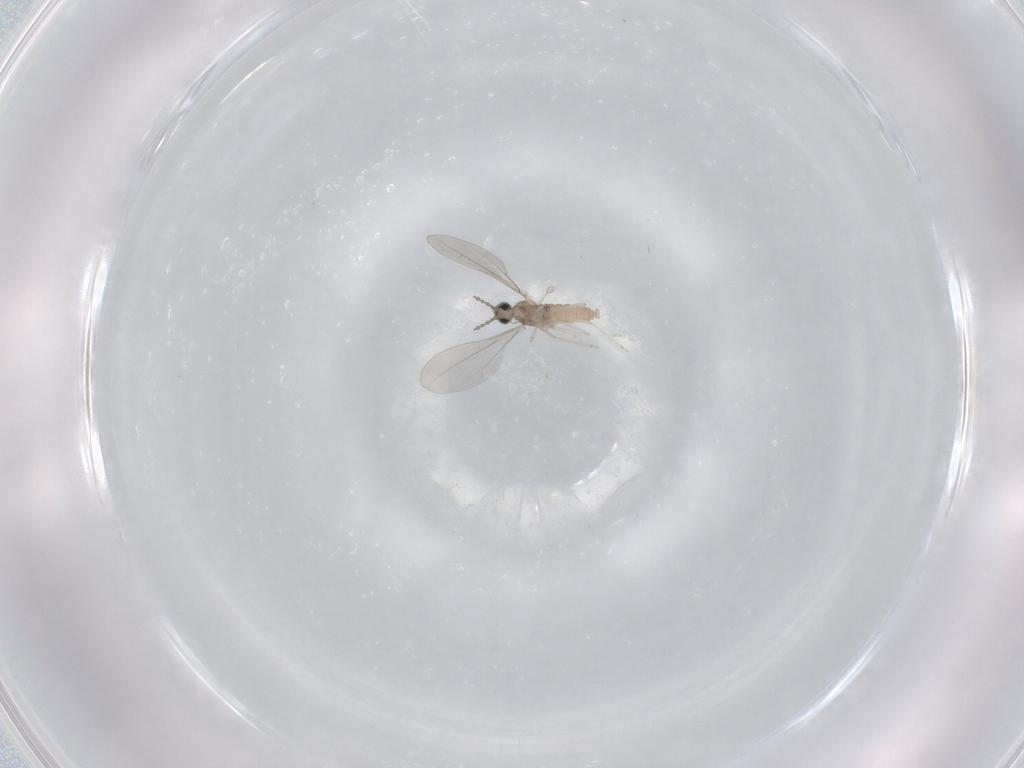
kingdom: Animalia
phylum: Arthropoda
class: Insecta
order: Diptera
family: Cecidomyiidae
